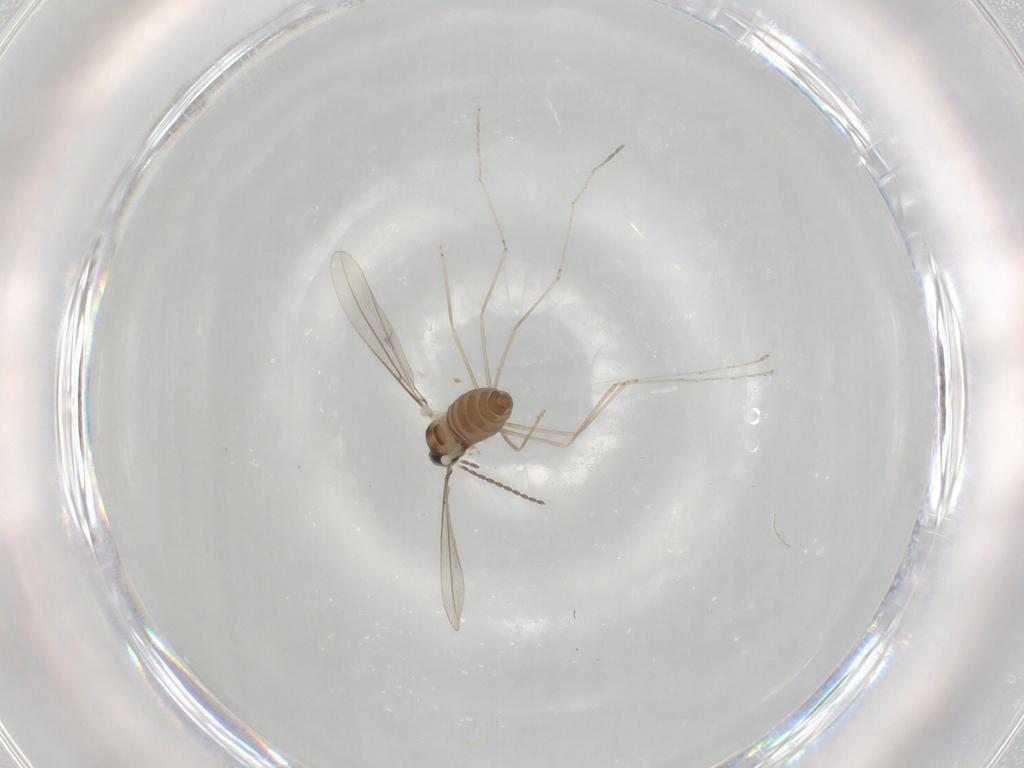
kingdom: Animalia
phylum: Arthropoda
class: Insecta
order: Diptera
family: Cecidomyiidae
